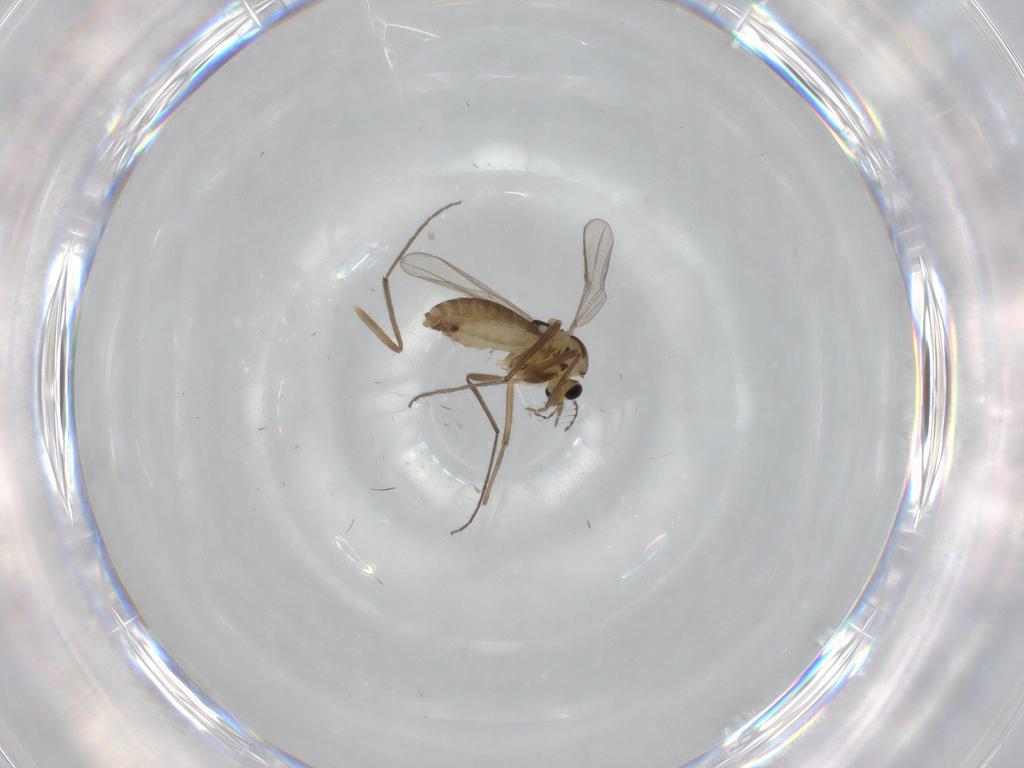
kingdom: Animalia
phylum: Arthropoda
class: Insecta
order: Diptera
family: Chironomidae
